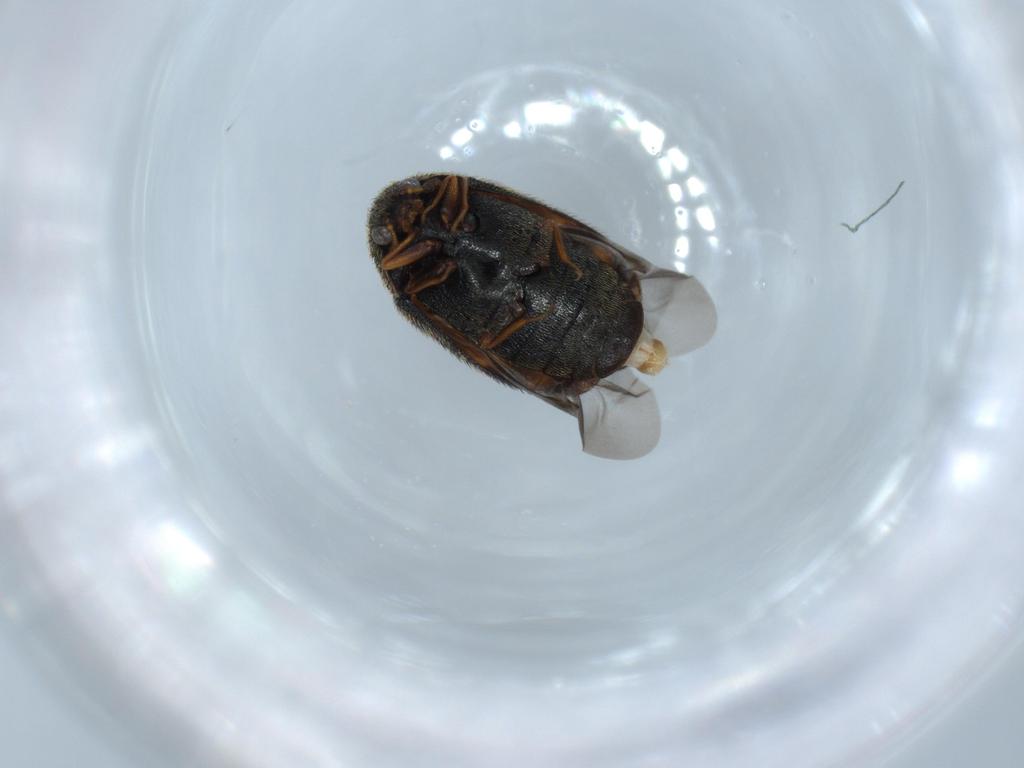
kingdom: Animalia
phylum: Arthropoda
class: Insecta
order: Coleoptera
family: Dermestidae
